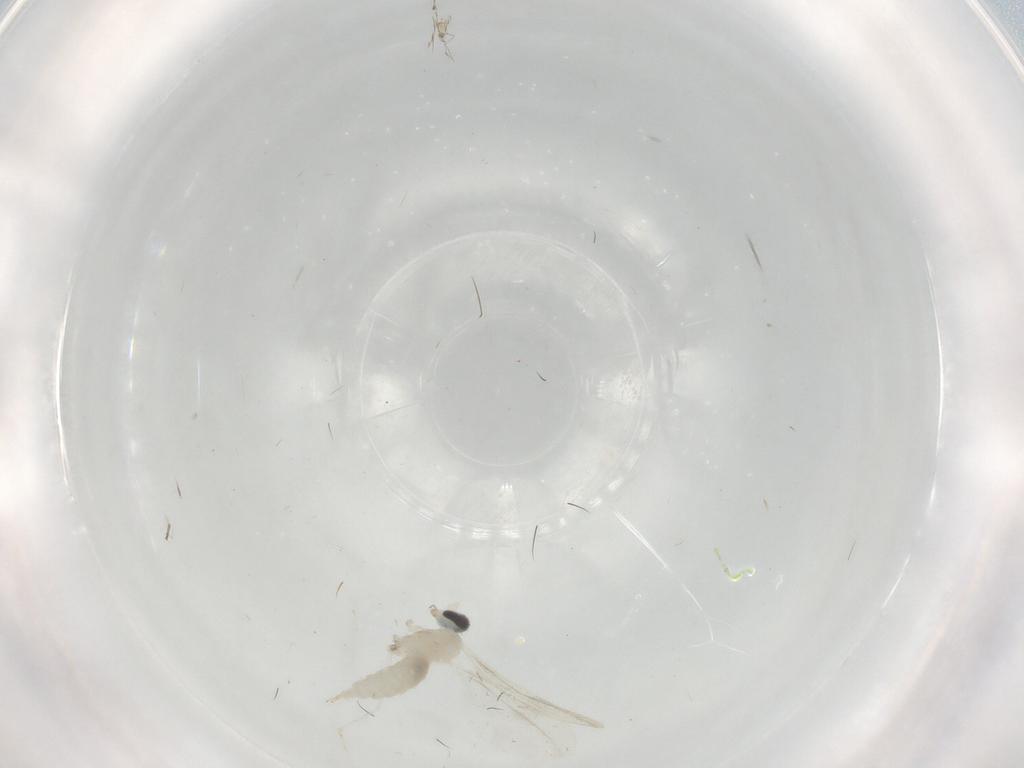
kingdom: Animalia
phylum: Arthropoda
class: Insecta
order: Diptera
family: Cecidomyiidae
